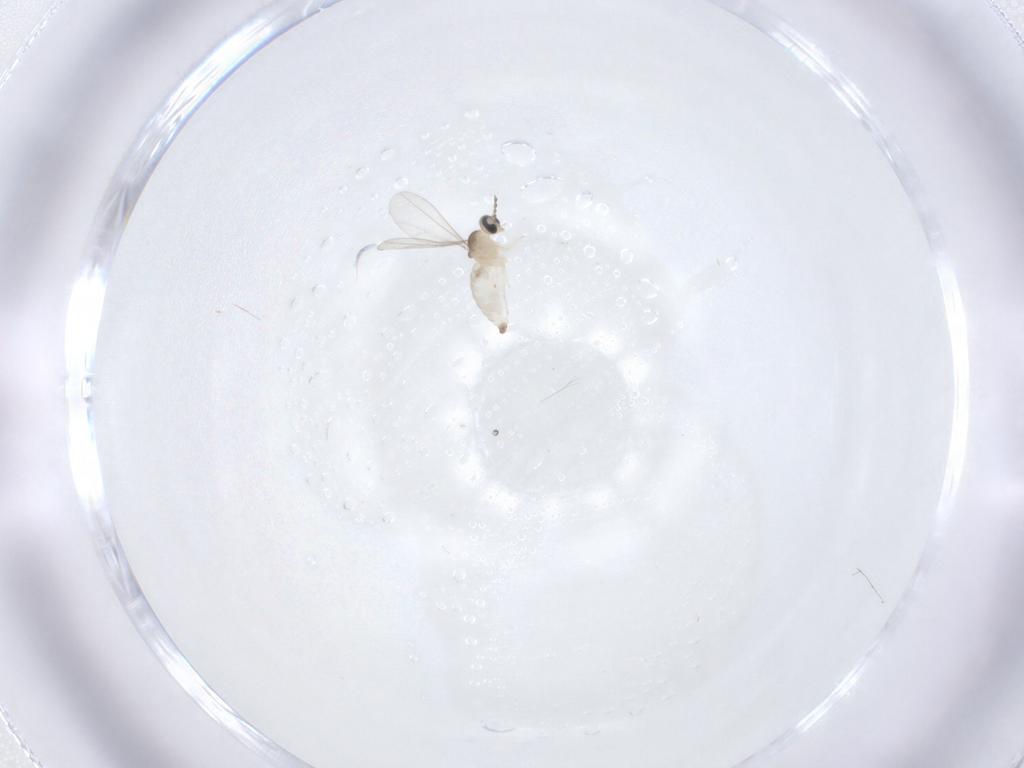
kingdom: Animalia
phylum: Arthropoda
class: Insecta
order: Diptera
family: Cecidomyiidae
